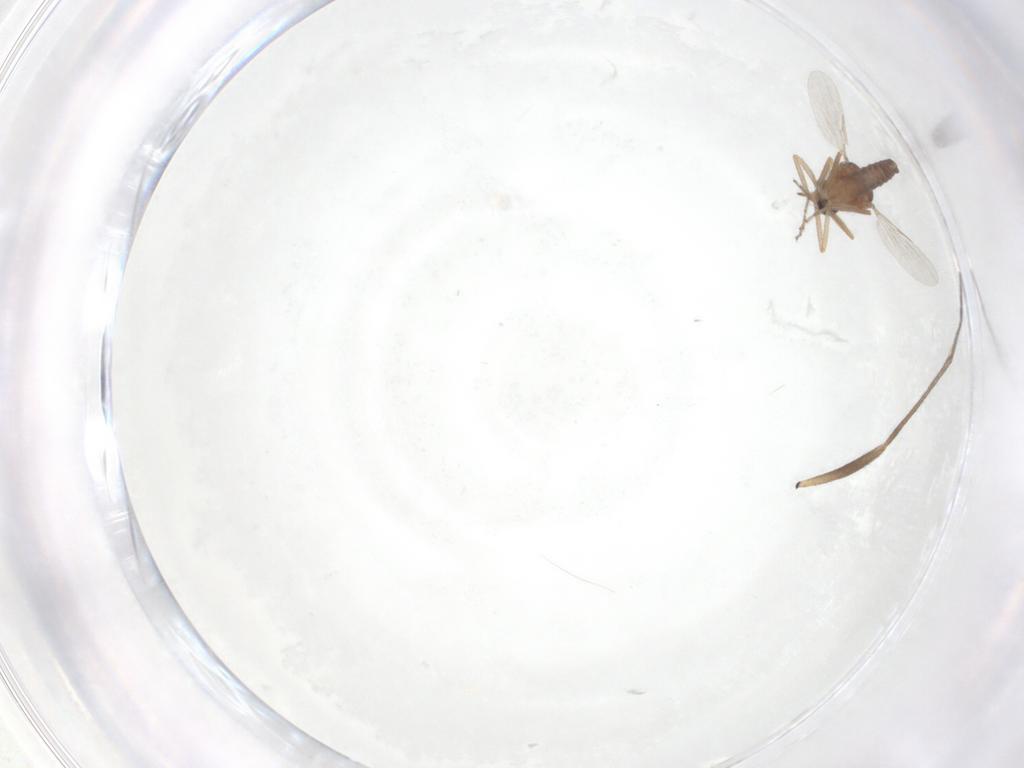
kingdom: Animalia
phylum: Arthropoda
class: Insecta
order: Diptera
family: Ceratopogonidae
